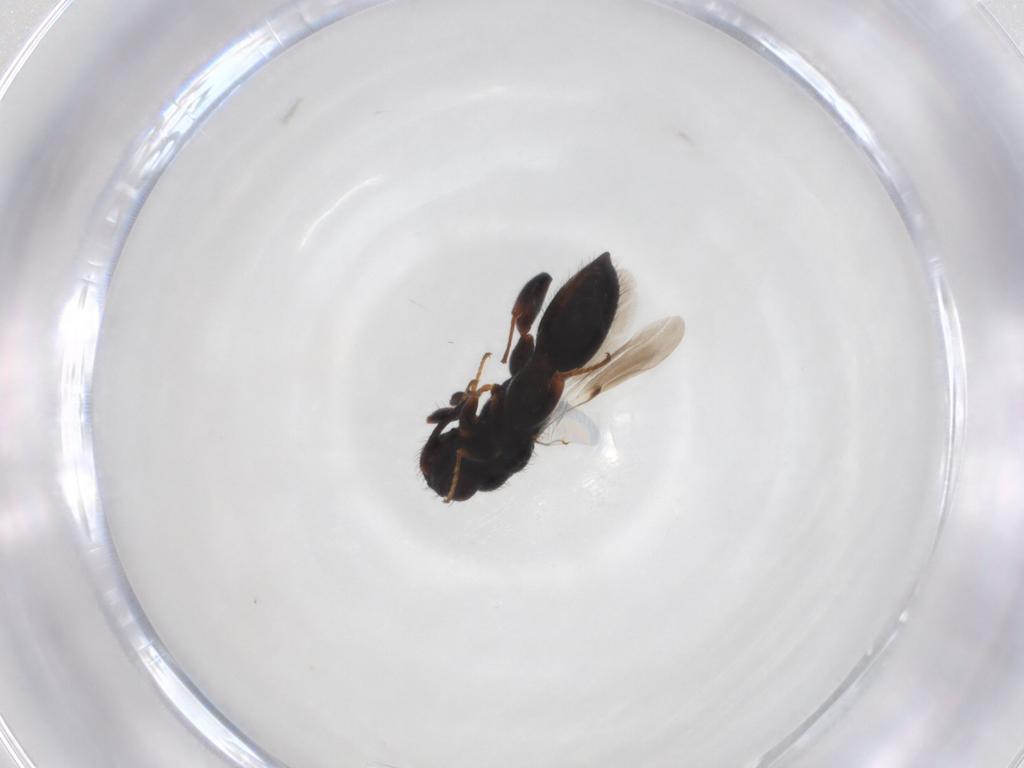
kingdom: Animalia
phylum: Arthropoda
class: Insecta
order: Hymenoptera
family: Chalcididae
